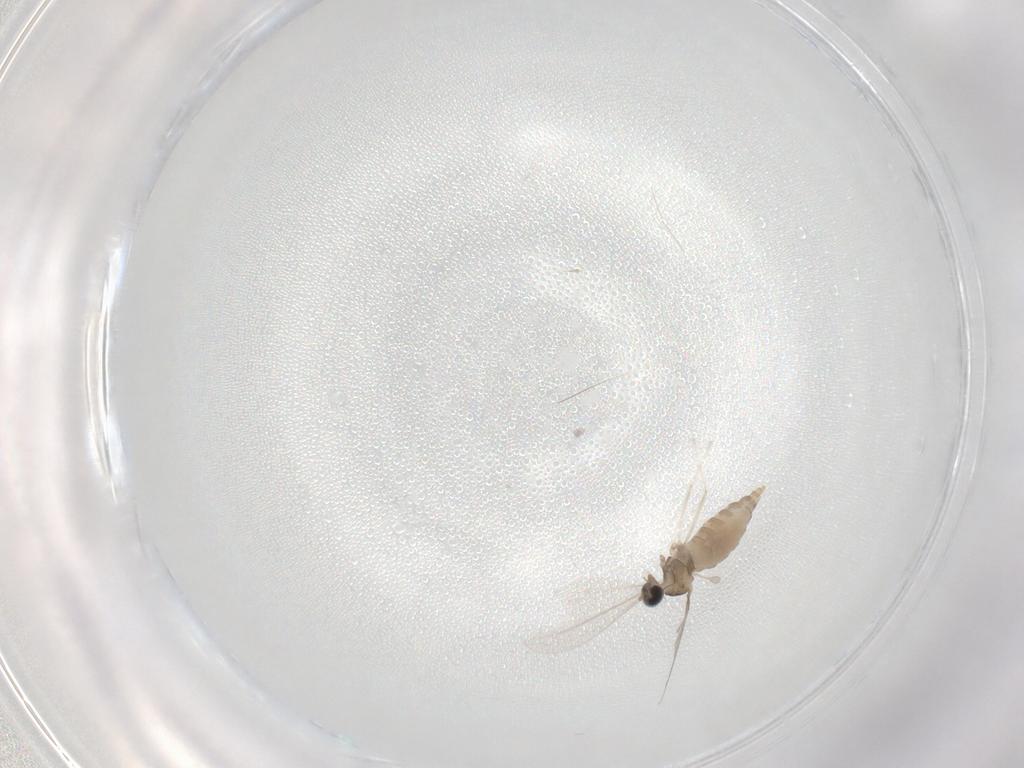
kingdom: Animalia
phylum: Arthropoda
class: Insecta
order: Diptera
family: Cecidomyiidae
